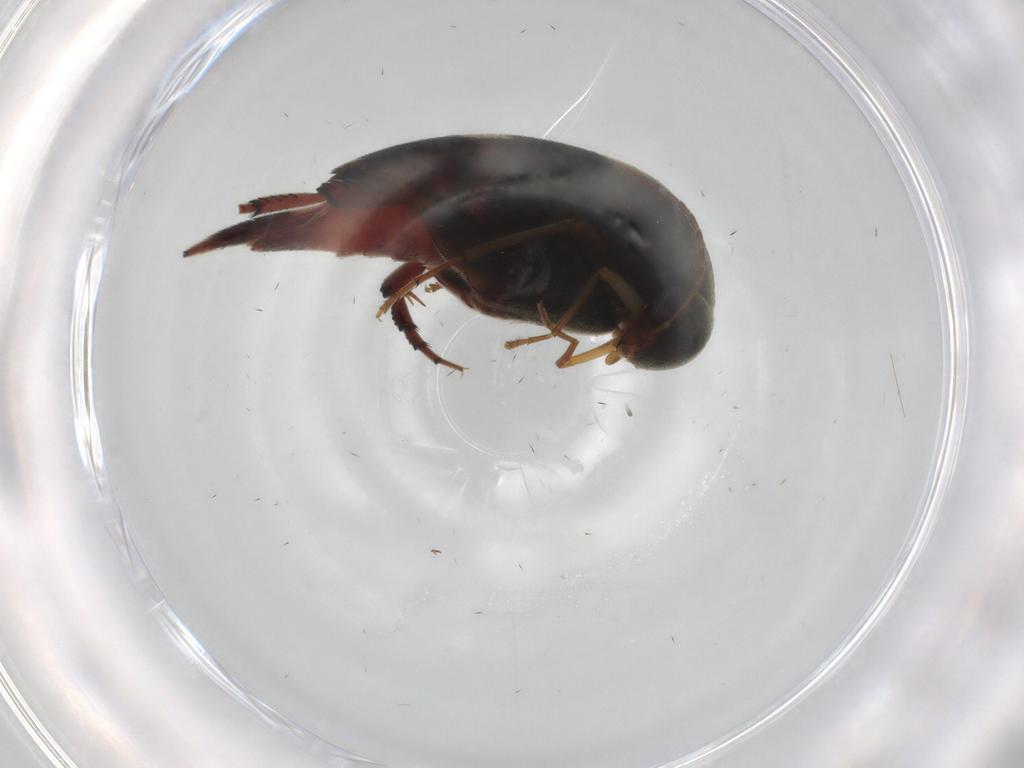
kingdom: Animalia
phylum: Arthropoda
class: Insecta
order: Coleoptera
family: Mordellidae
